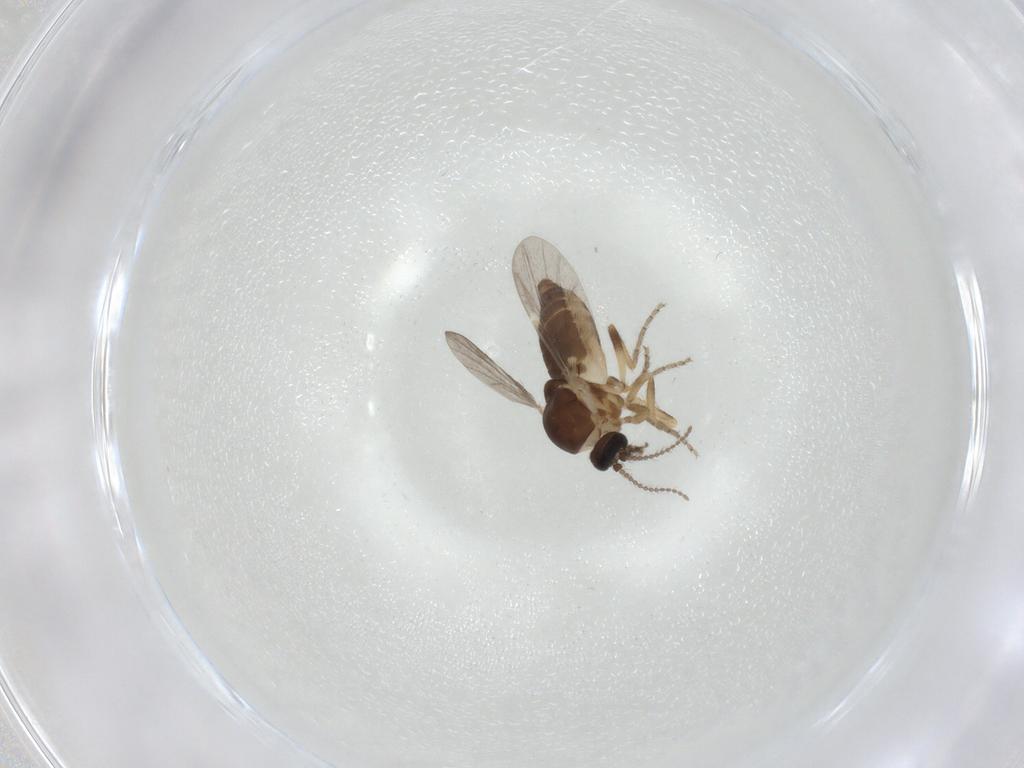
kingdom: Animalia
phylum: Arthropoda
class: Insecta
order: Diptera
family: Ceratopogonidae
